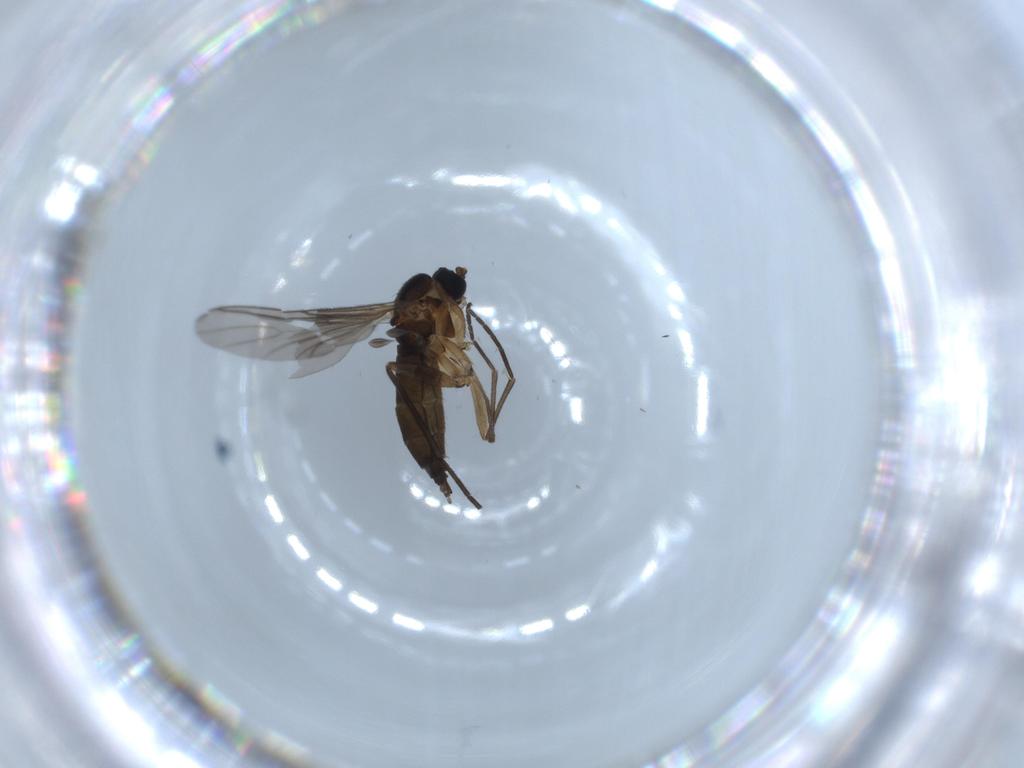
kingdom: Animalia
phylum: Arthropoda
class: Insecta
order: Diptera
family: Sciaridae
